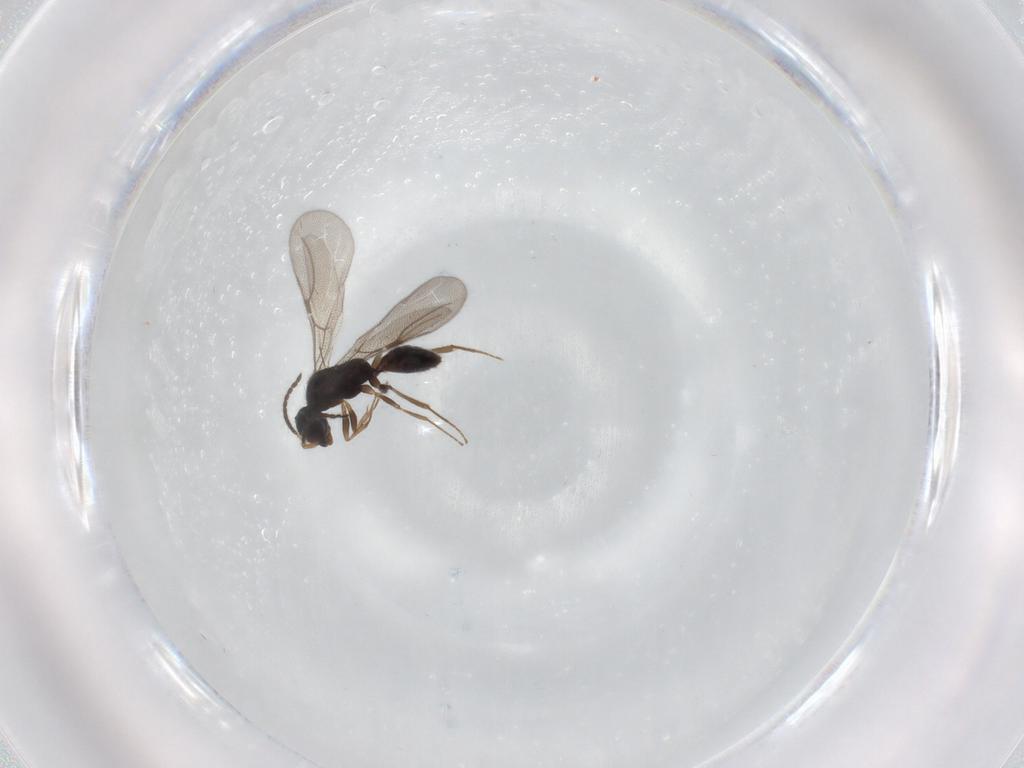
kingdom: Animalia
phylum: Arthropoda
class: Insecta
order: Hymenoptera
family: Bethylidae
